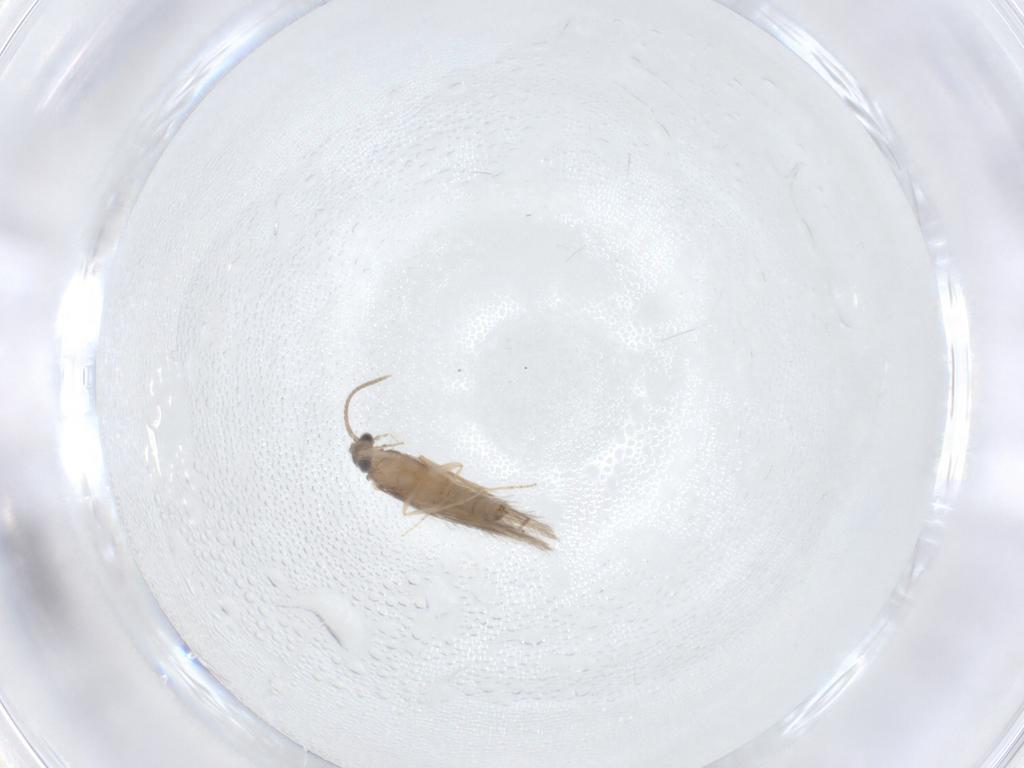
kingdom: Animalia
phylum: Arthropoda
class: Insecta
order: Trichoptera
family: Hydroptilidae
